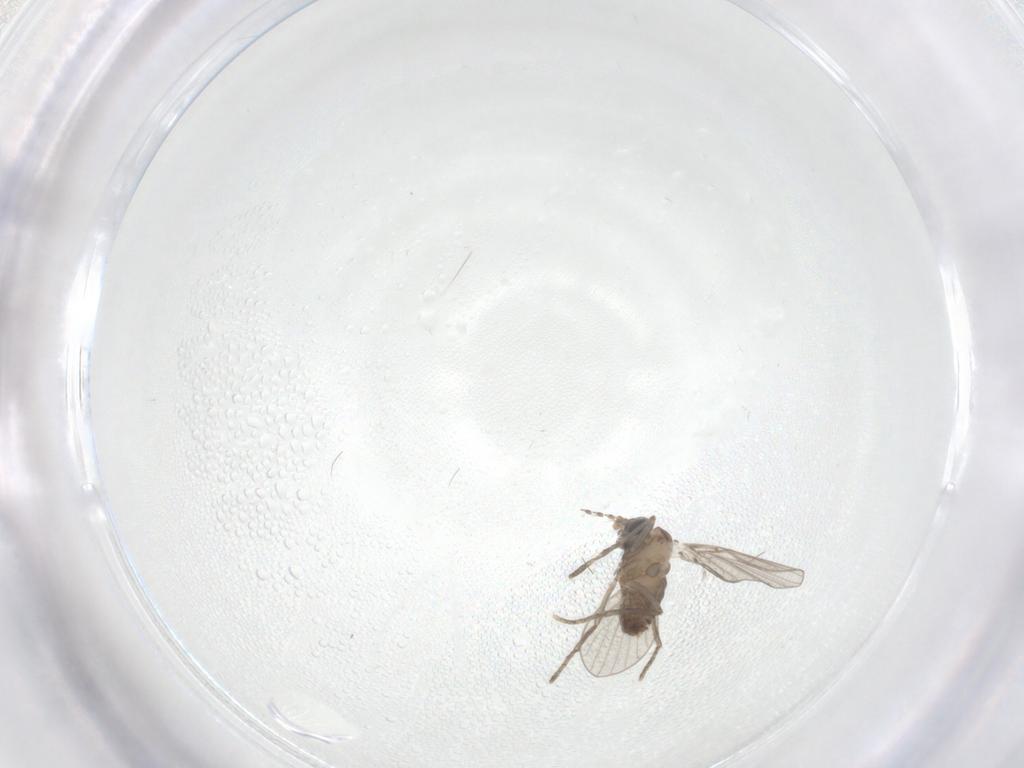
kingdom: Animalia
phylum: Arthropoda
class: Insecta
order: Diptera
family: Chironomidae
